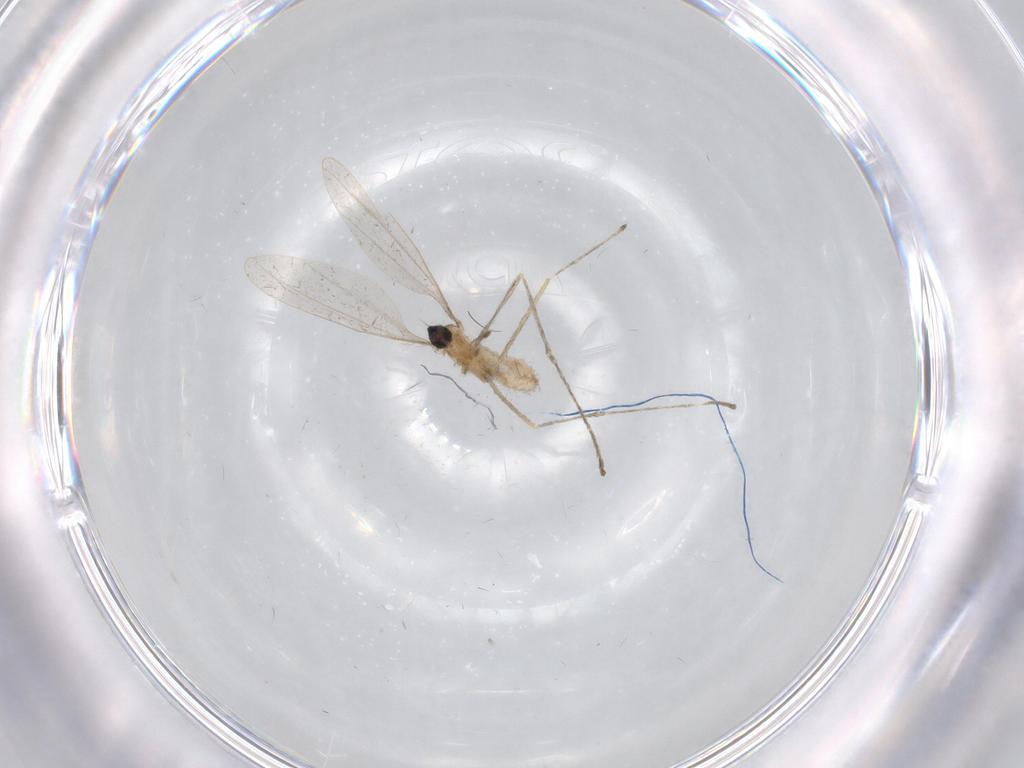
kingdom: Animalia
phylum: Arthropoda
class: Insecta
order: Diptera
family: Cecidomyiidae
